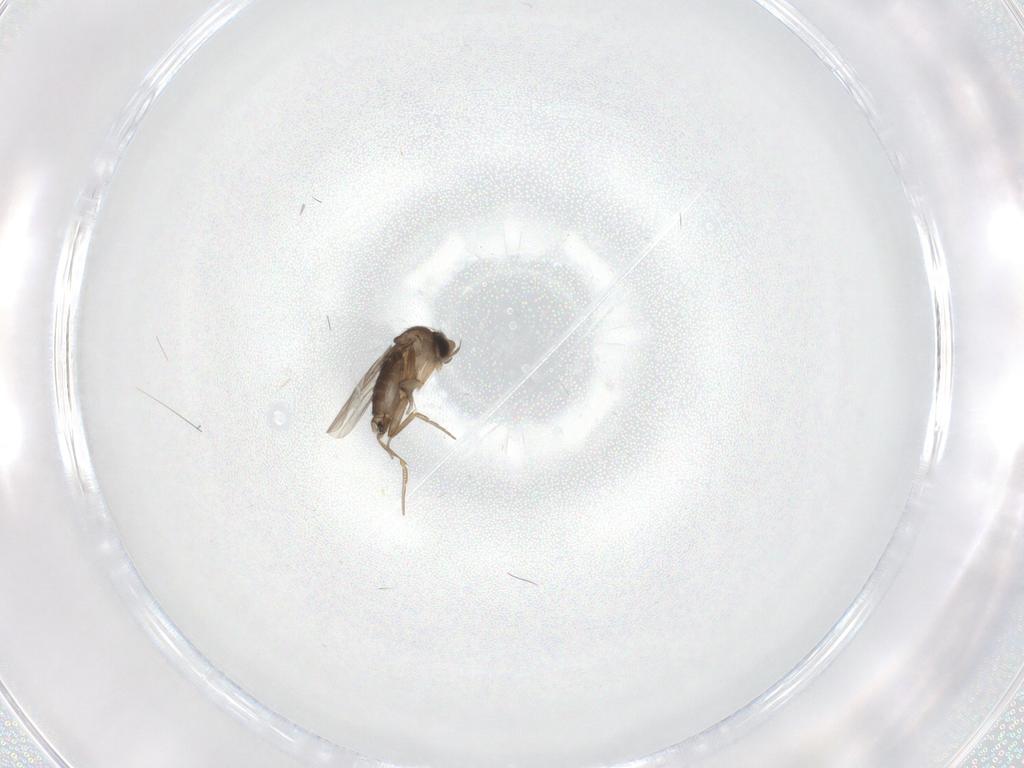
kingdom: Animalia
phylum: Arthropoda
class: Insecta
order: Diptera
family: Phoridae
